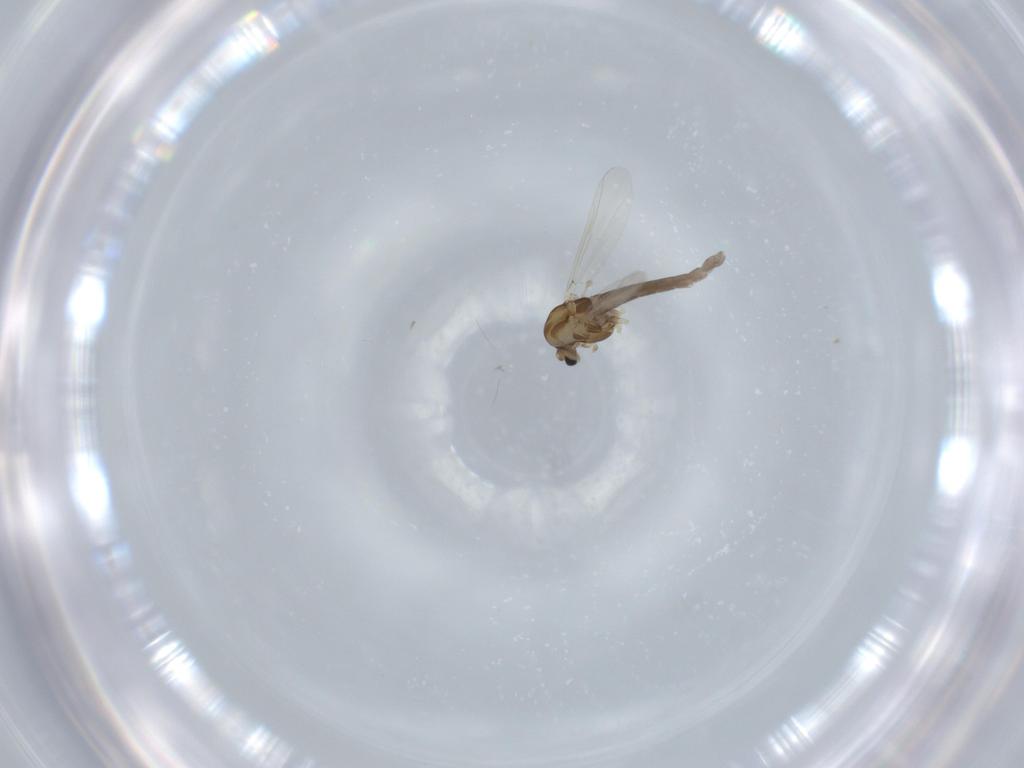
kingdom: Animalia
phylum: Arthropoda
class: Insecta
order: Diptera
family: Chironomidae
